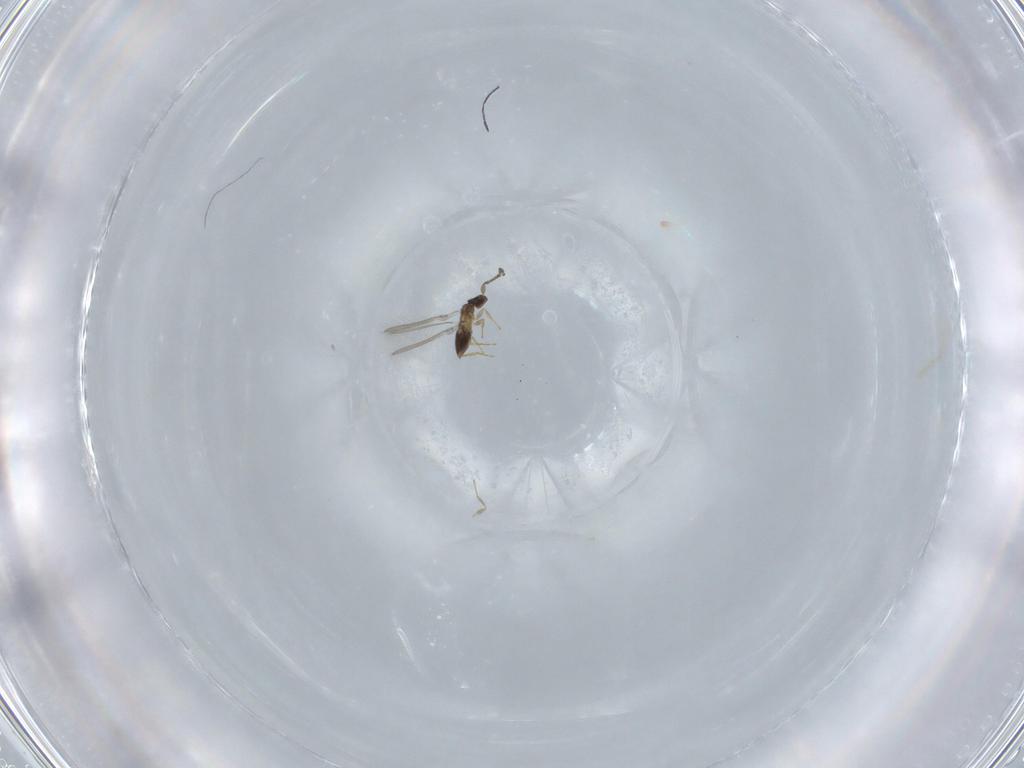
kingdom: Animalia
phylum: Arthropoda
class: Insecta
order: Hymenoptera
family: Mymaridae
